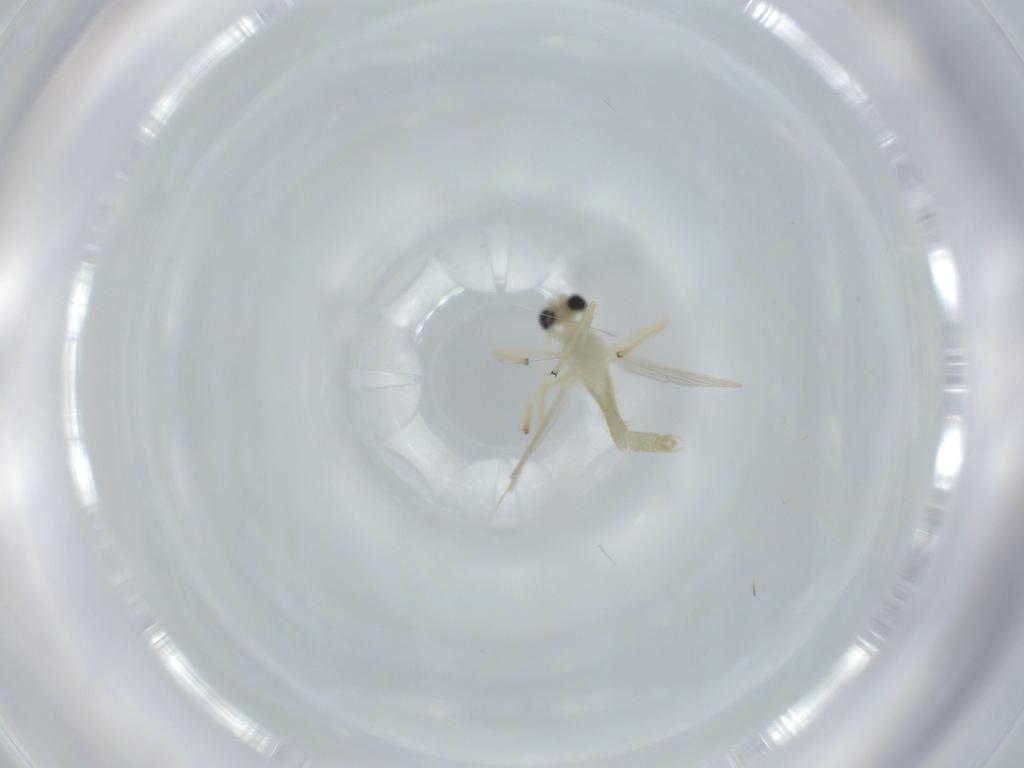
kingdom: Animalia
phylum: Arthropoda
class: Insecta
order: Diptera
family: Chironomidae
